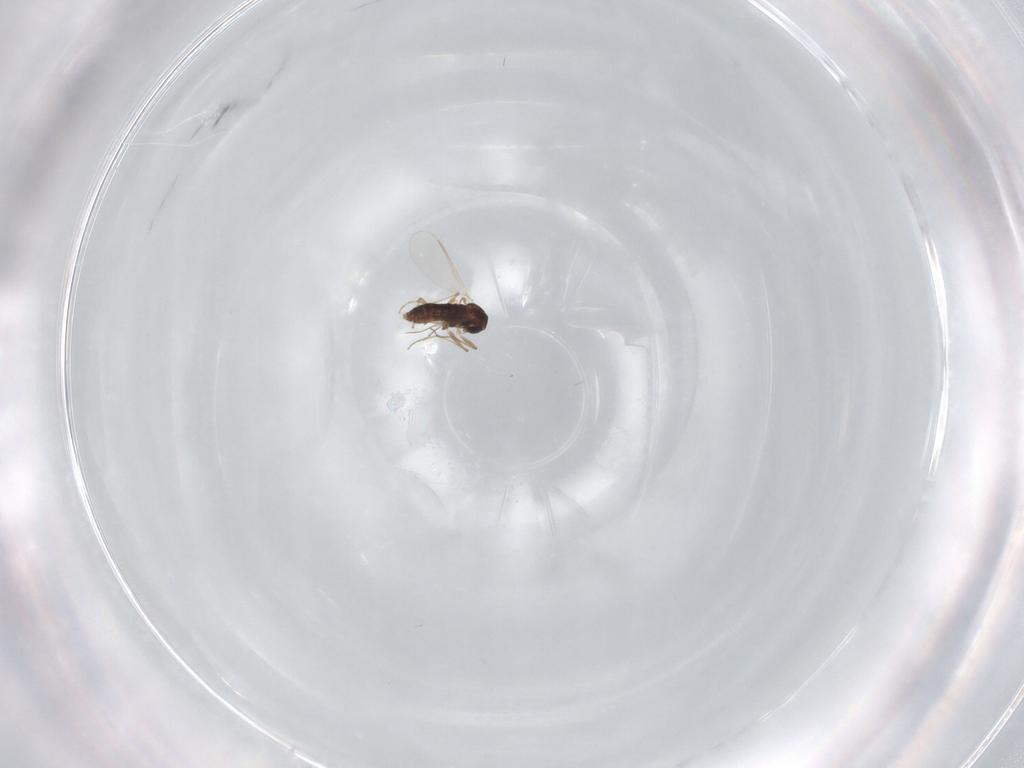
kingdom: Animalia
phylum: Arthropoda
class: Insecta
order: Diptera
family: Chironomidae
